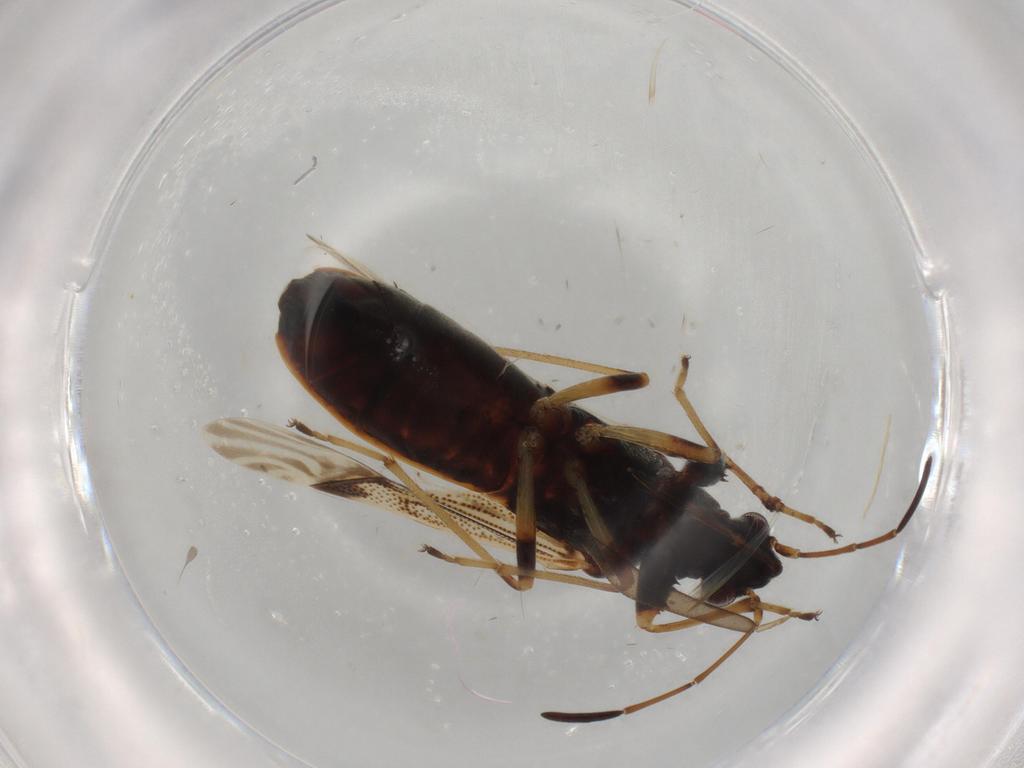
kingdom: Animalia
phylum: Arthropoda
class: Insecta
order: Hemiptera
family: Rhyparochromidae
